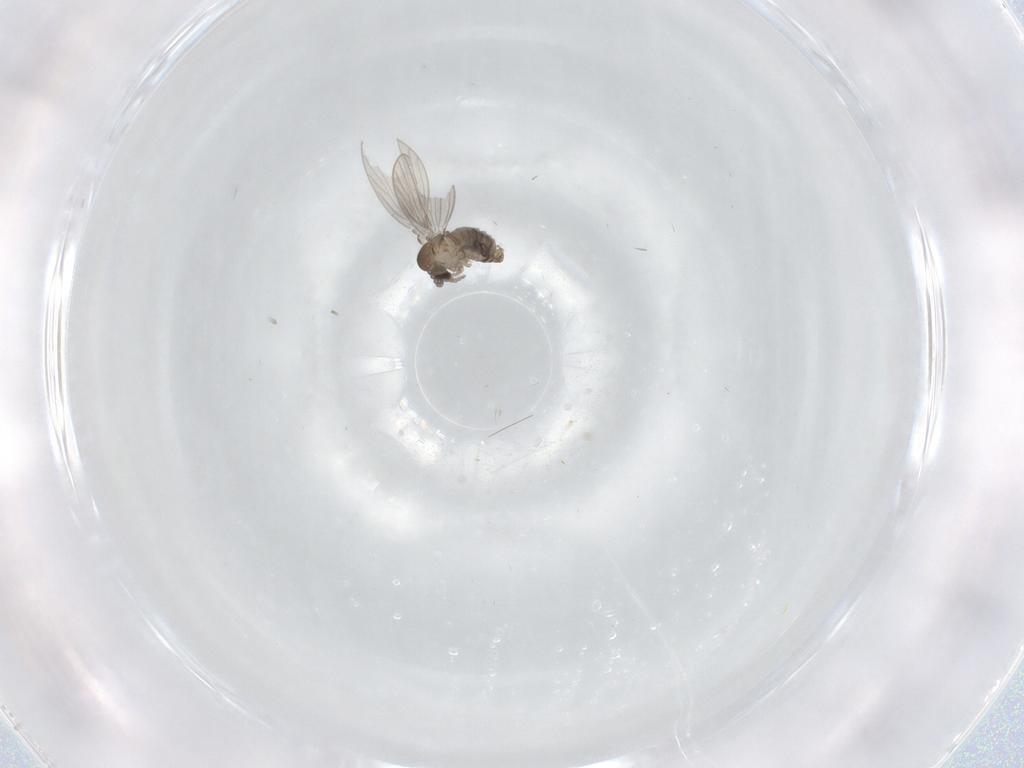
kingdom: Animalia
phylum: Arthropoda
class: Insecta
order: Diptera
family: Psychodidae
